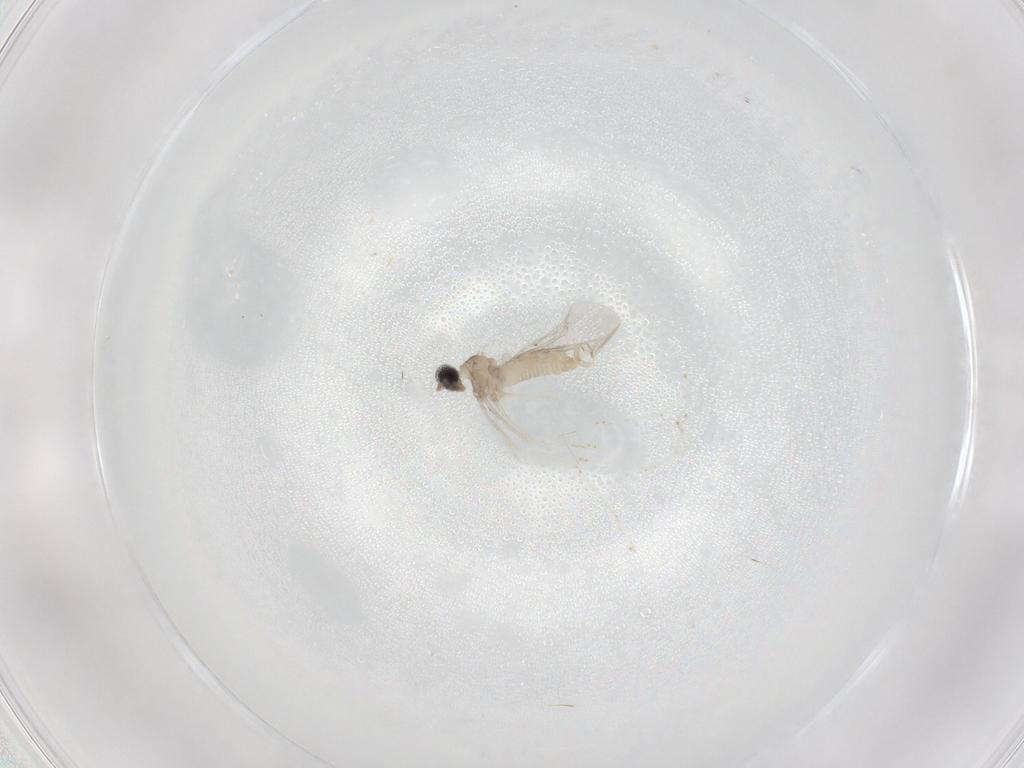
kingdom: Animalia
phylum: Arthropoda
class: Insecta
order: Diptera
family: Cecidomyiidae
